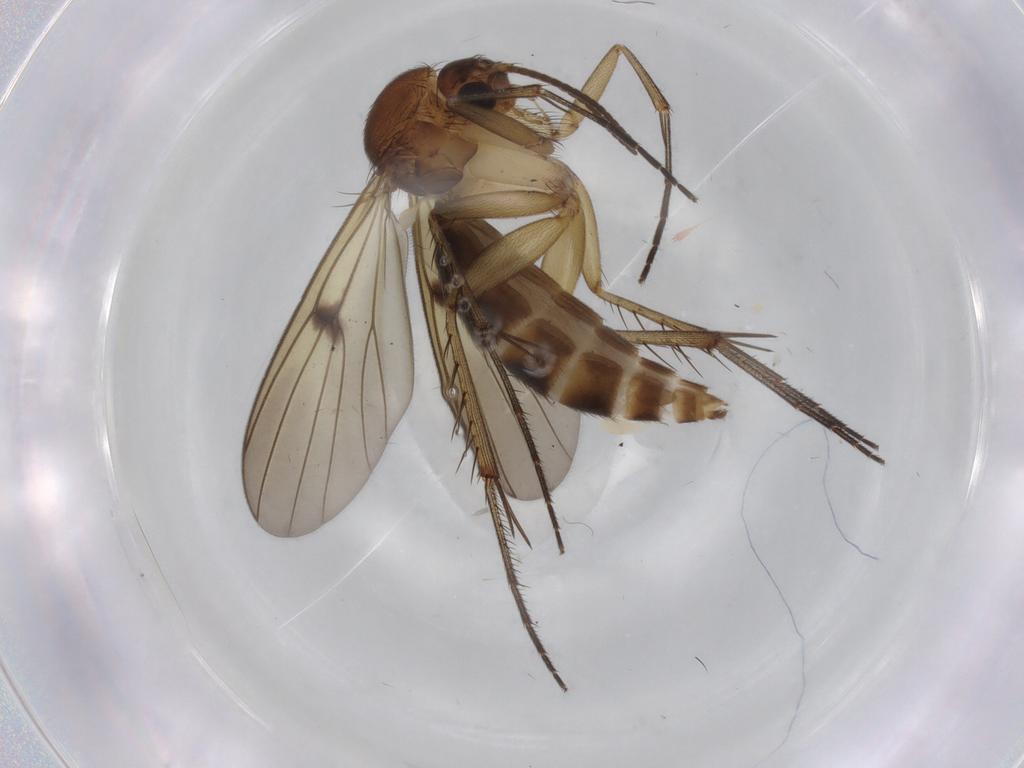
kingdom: Animalia
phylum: Arthropoda
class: Insecta
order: Diptera
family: Mycetophilidae
